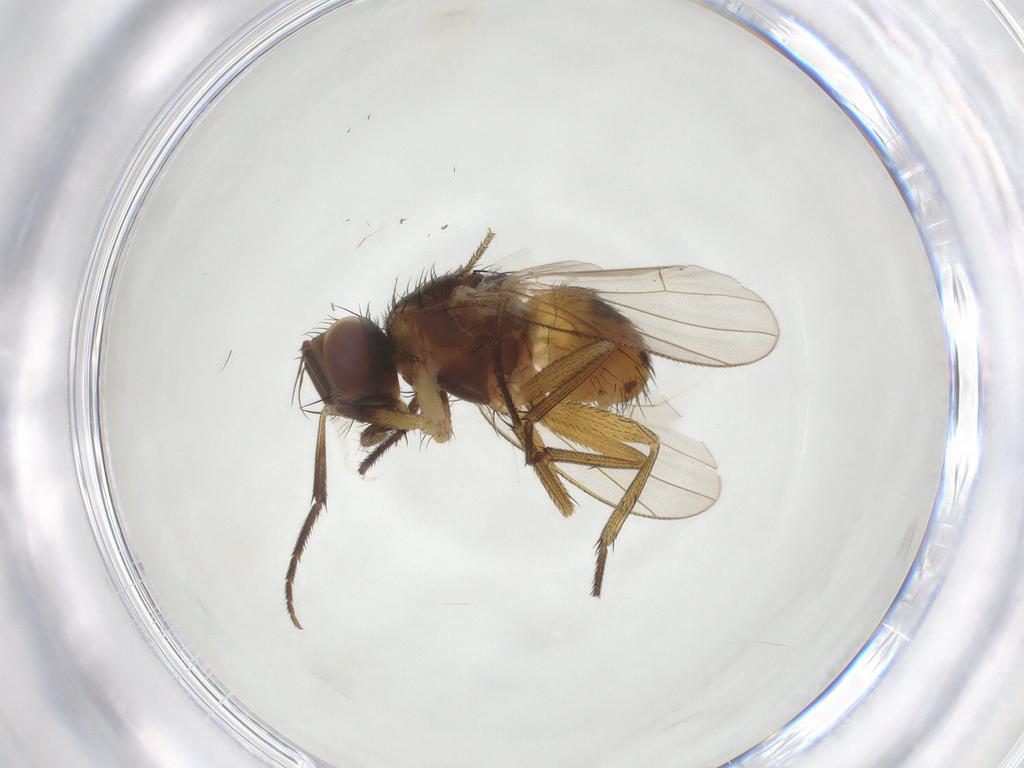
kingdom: Animalia
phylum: Arthropoda
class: Insecta
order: Diptera
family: Muscidae
